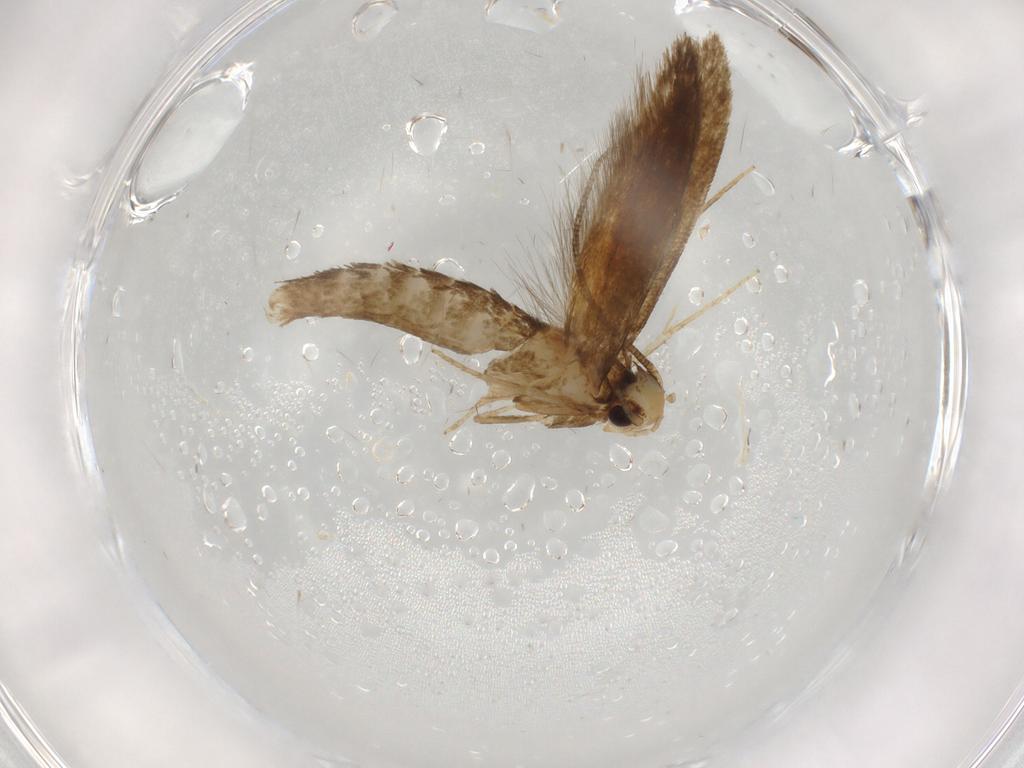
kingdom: Animalia
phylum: Arthropoda
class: Insecta
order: Lepidoptera
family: Tineidae
